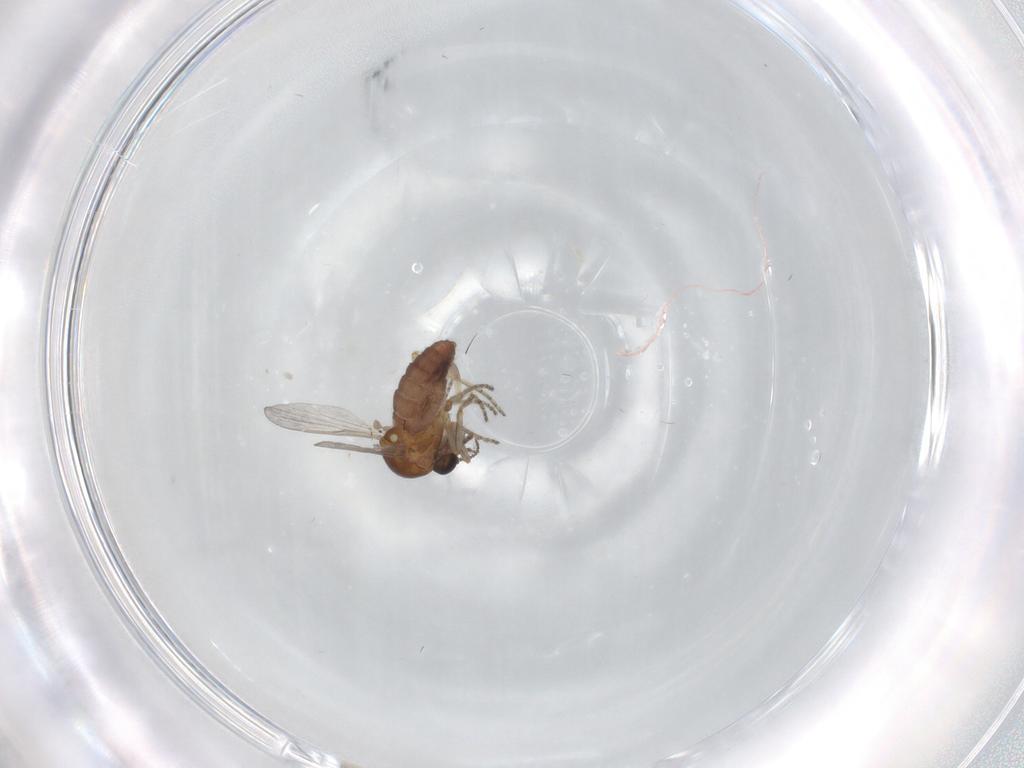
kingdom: Animalia
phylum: Arthropoda
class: Insecta
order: Diptera
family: Ceratopogonidae
